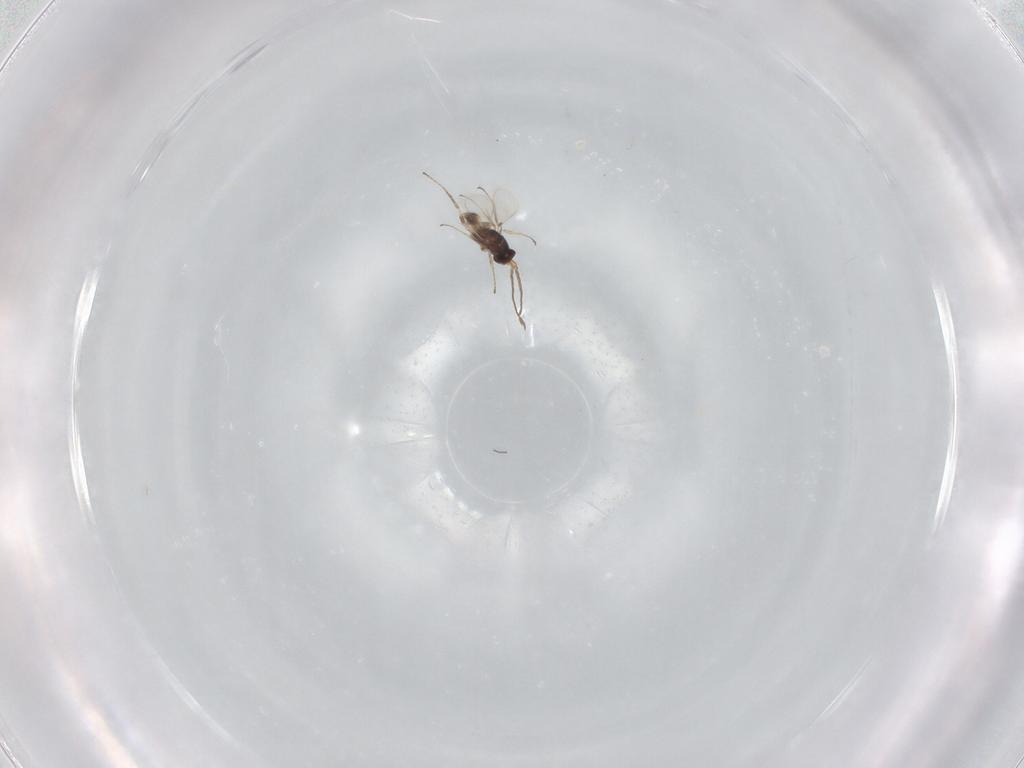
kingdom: Animalia
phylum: Arthropoda
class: Insecta
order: Hymenoptera
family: Mymaridae
